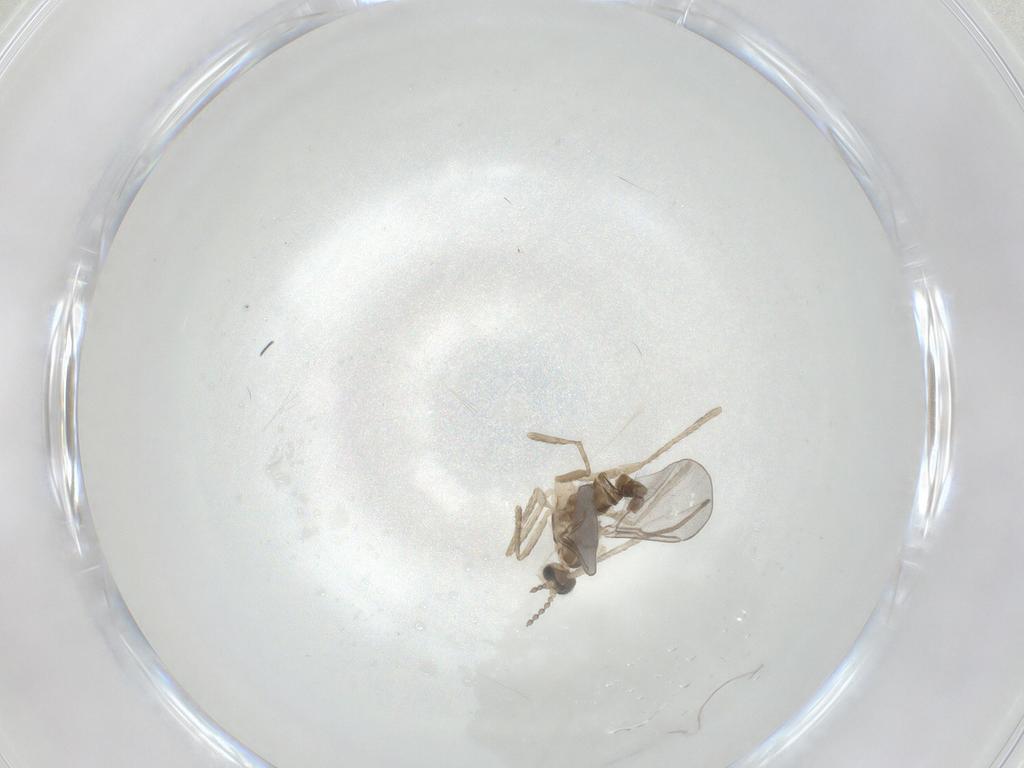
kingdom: Animalia
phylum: Arthropoda
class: Insecta
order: Diptera
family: Cecidomyiidae
